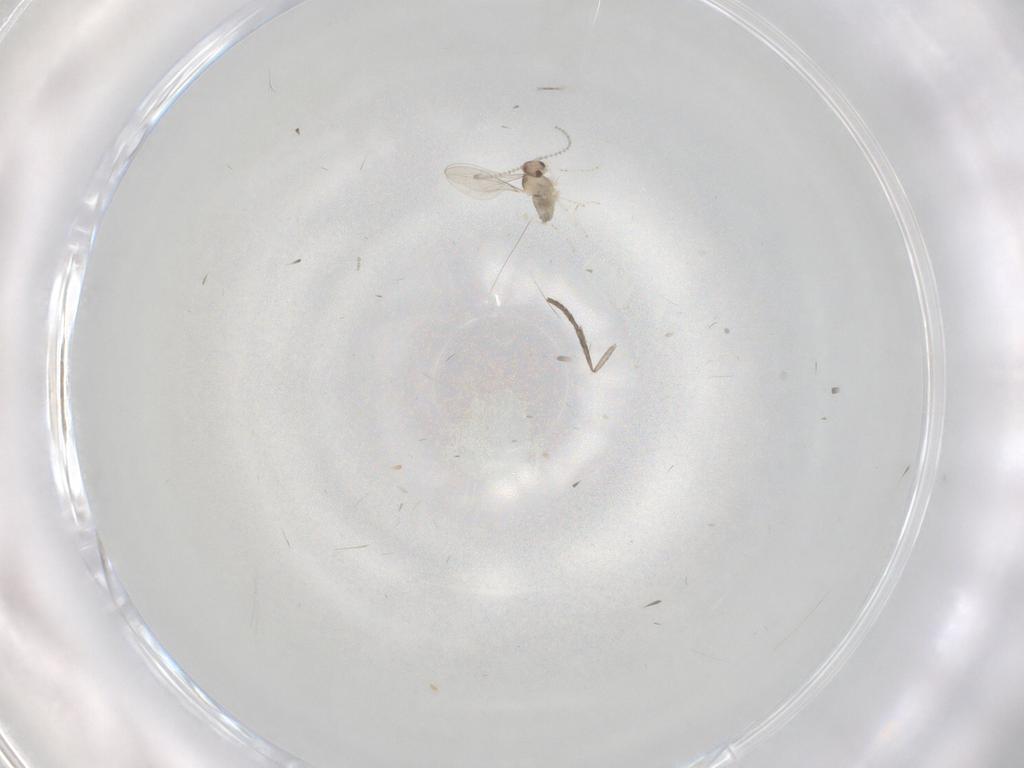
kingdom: Animalia
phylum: Arthropoda
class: Insecta
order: Diptera
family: Cecidomyiidae
